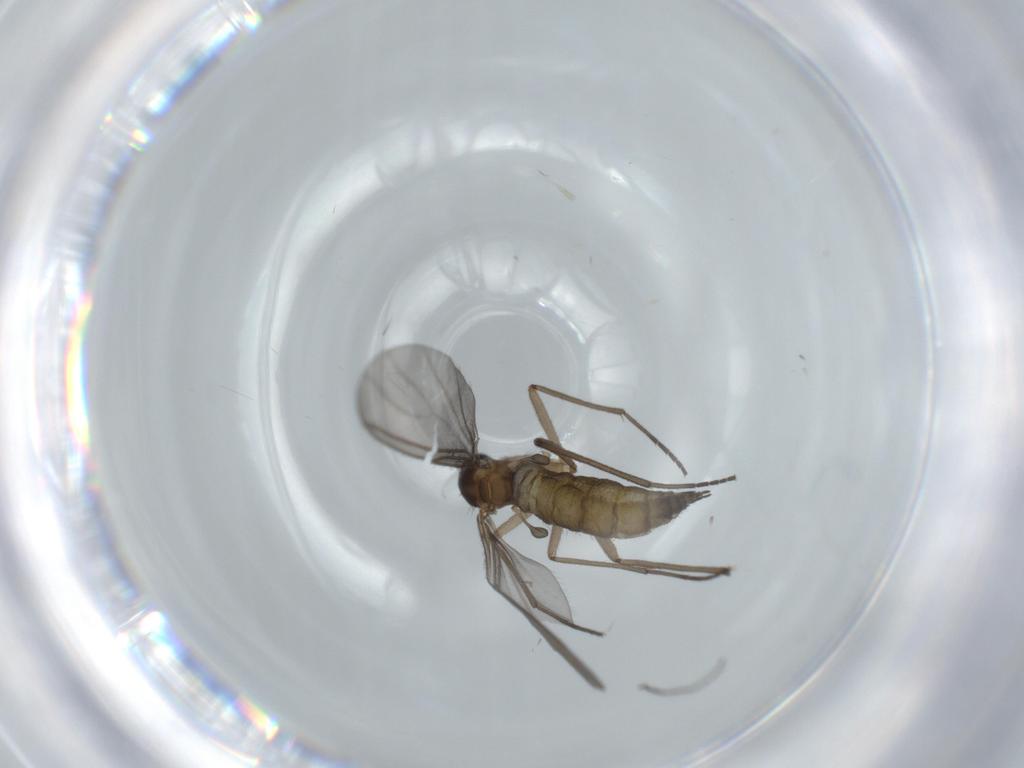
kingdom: Animalia
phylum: Arthropoda
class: Insecta
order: Diptera
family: Sciaridae
